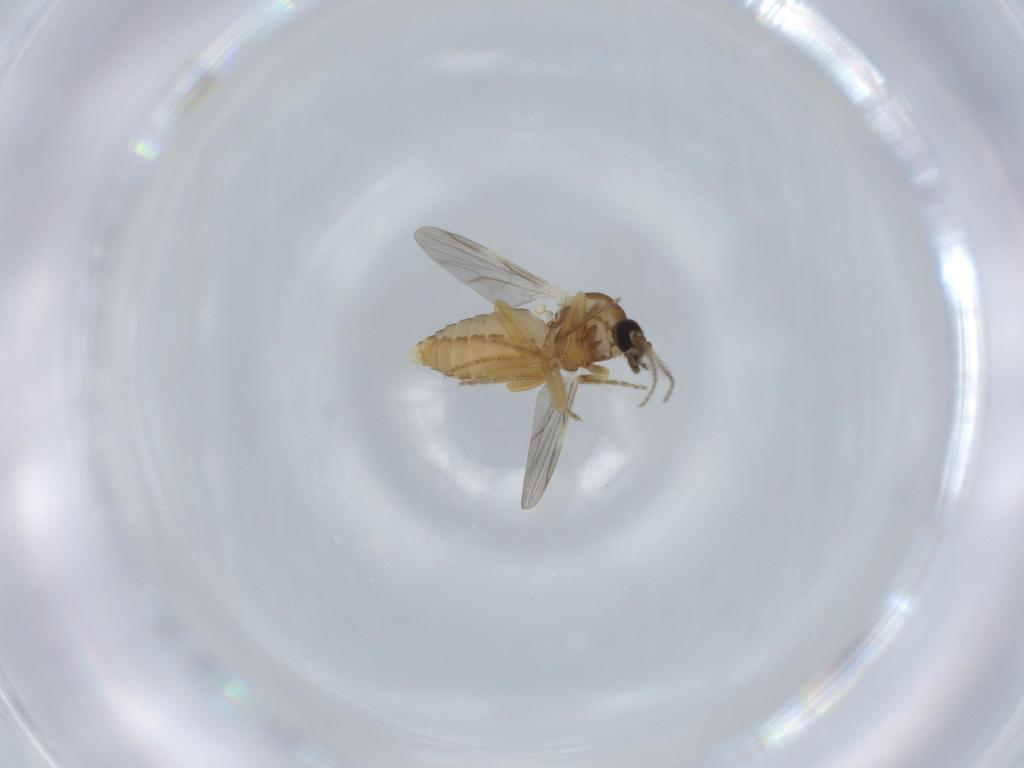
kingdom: Animalia
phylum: Arthropoda
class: Insecta
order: Diptera
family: Ceratopogonidae
